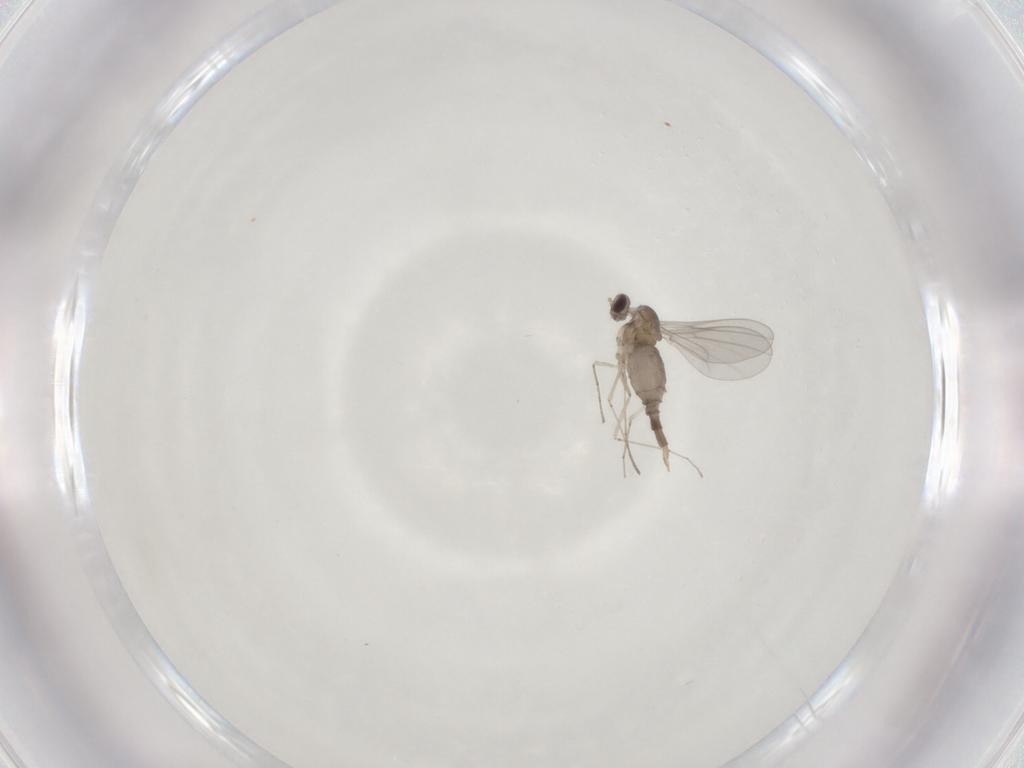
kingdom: Animalia
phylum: Arthropoda
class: Insecta
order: Diptera
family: Cecidomyiidae
